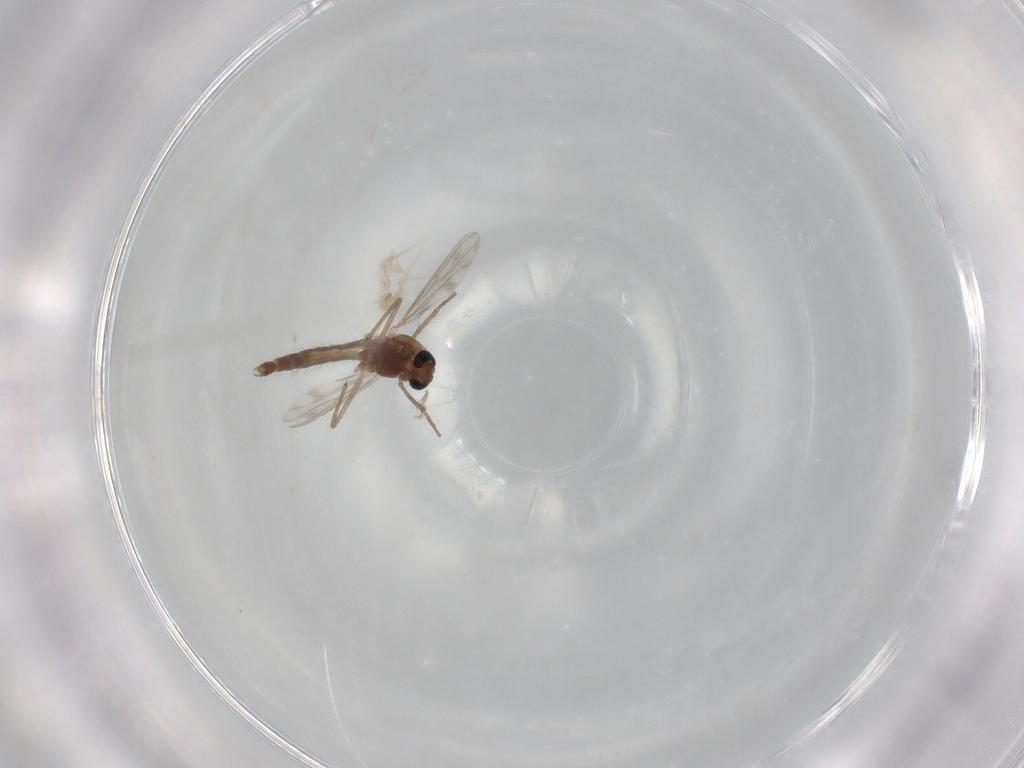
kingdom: Animalia
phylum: Arthropoda
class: Insecta
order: Diptera
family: Chironomidae
